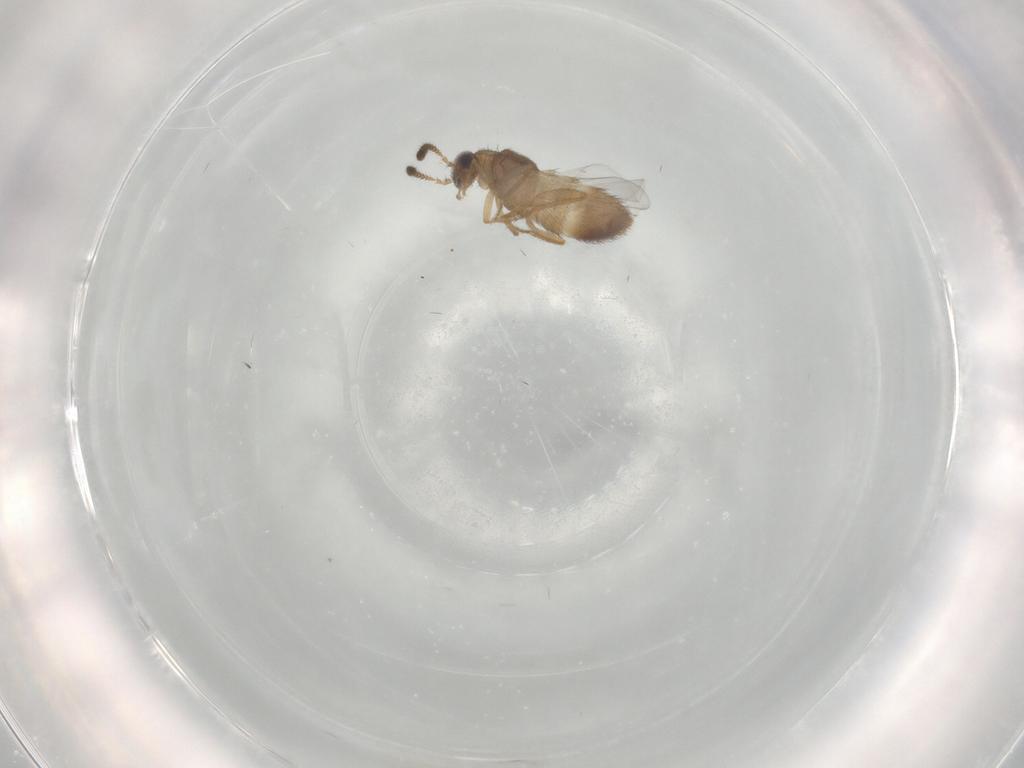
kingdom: Animalia
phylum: Arthropoda
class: Insecta
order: Coleoptera
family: Staphylinidae
